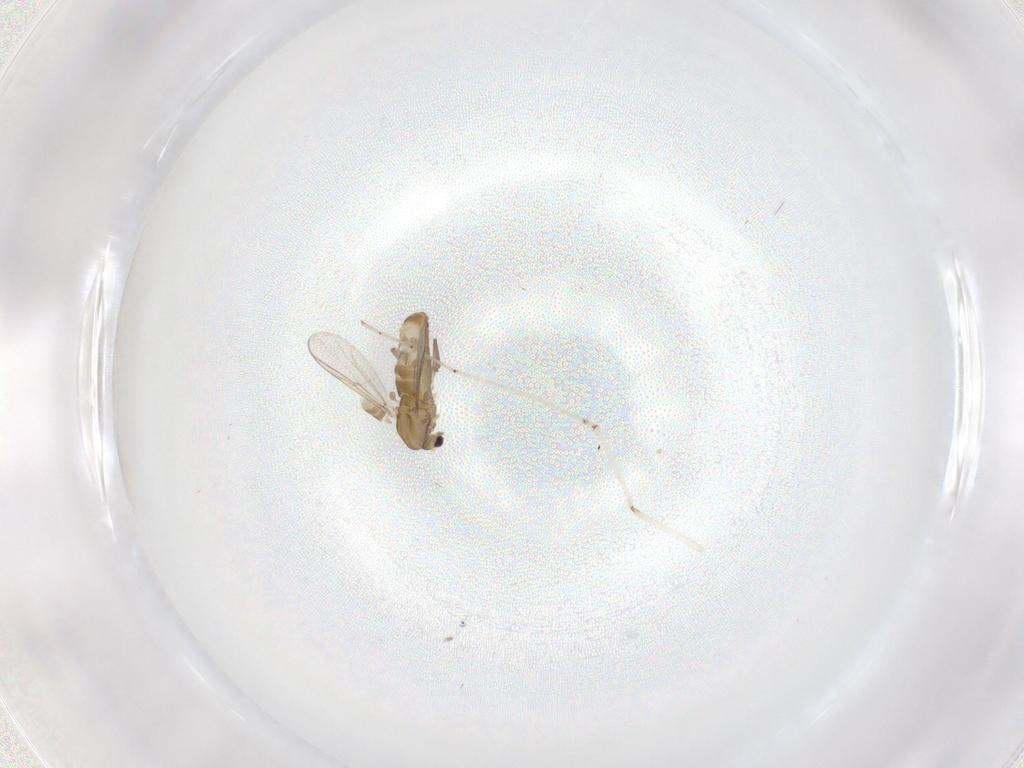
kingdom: Animalia
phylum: Arthropoda
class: Insecta
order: Diptera
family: Chironomidae
